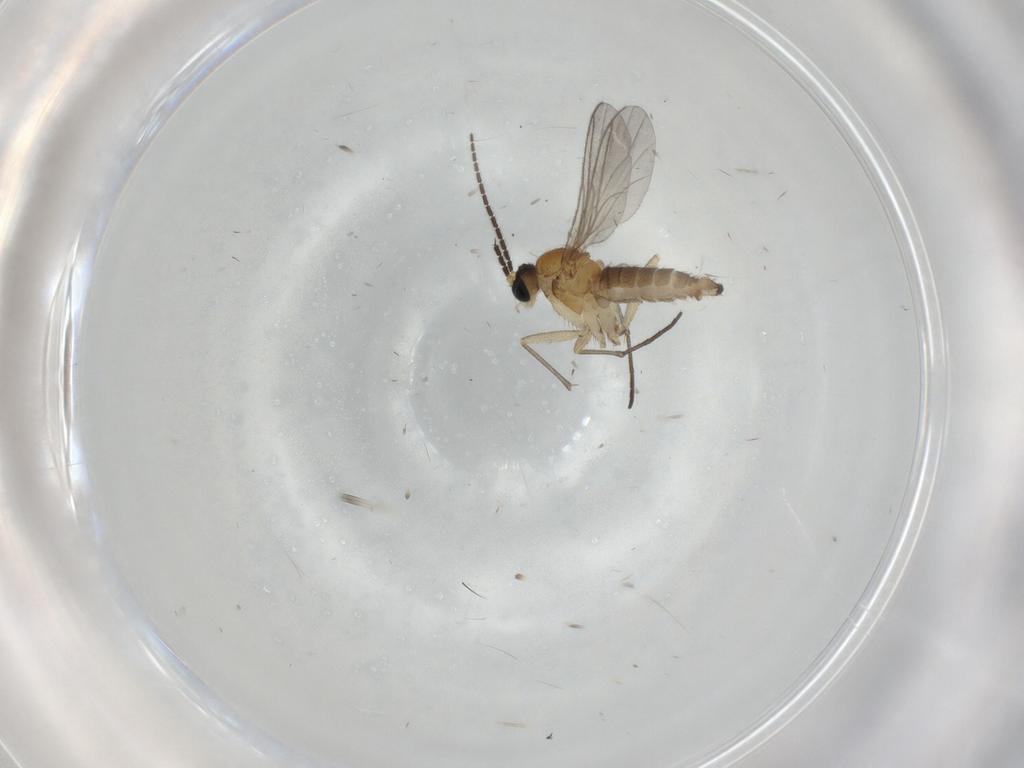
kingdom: Animalia
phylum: Arthropoda
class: Insecta
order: Diptera
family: Sciaridae
